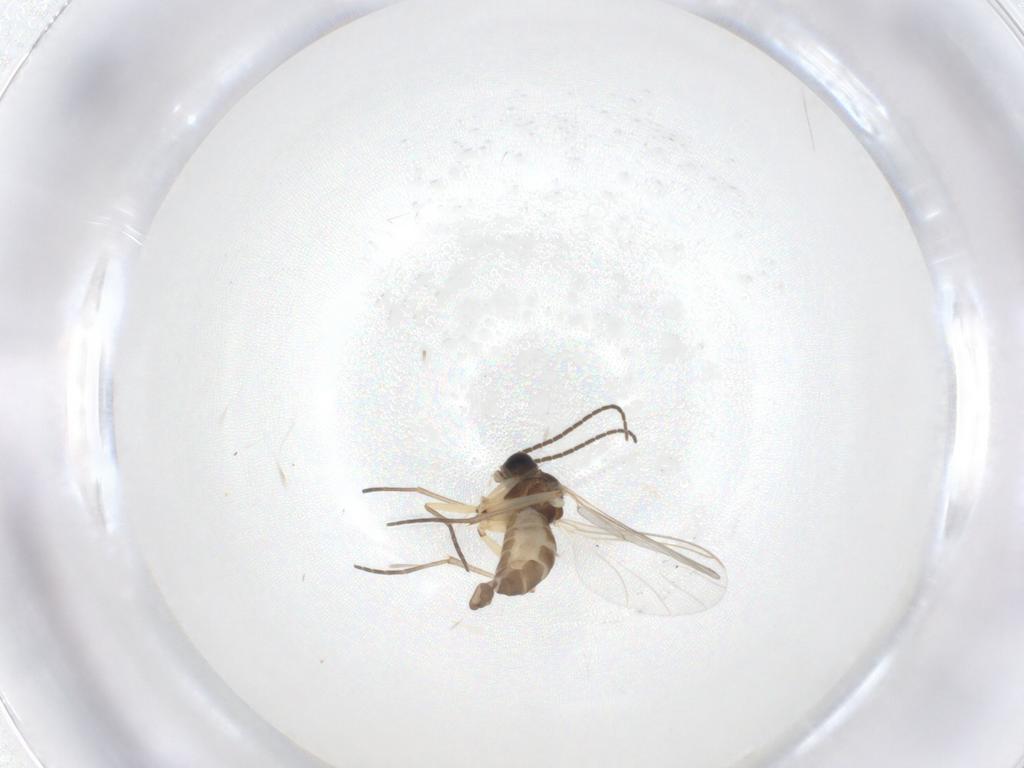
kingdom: Animalia
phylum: Arthropoda
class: Insecta
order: Diptera
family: Sciaridae
